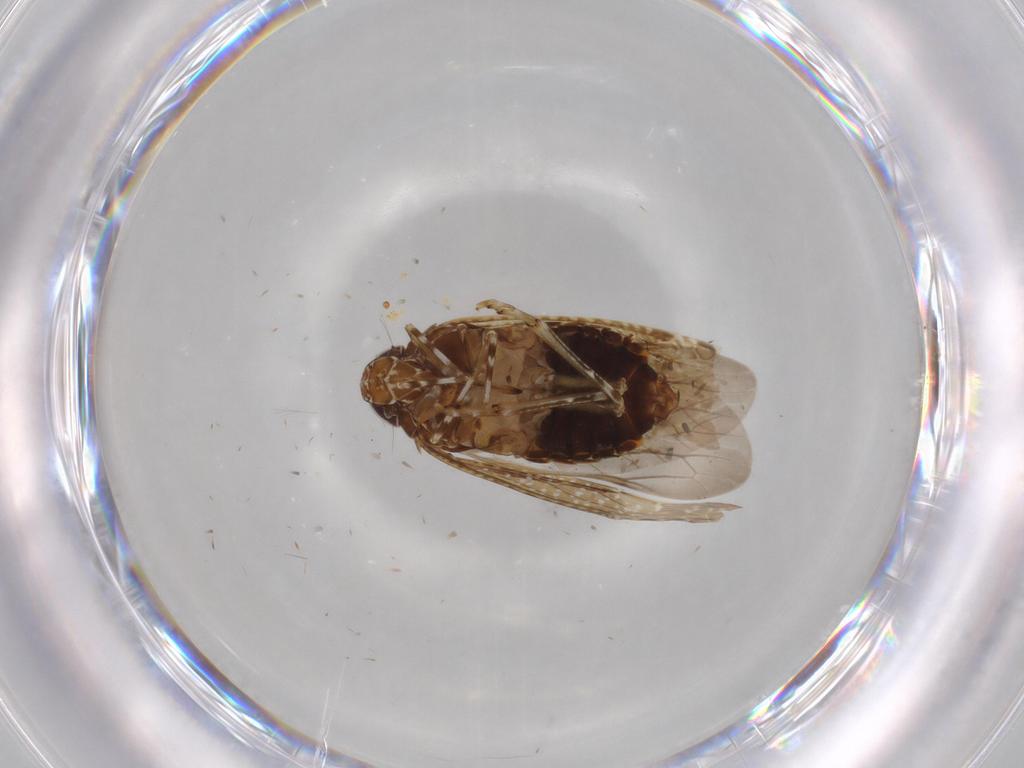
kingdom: Animalia
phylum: Arthropoda
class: Insecta
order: Hemiptera
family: Cicadellidae
